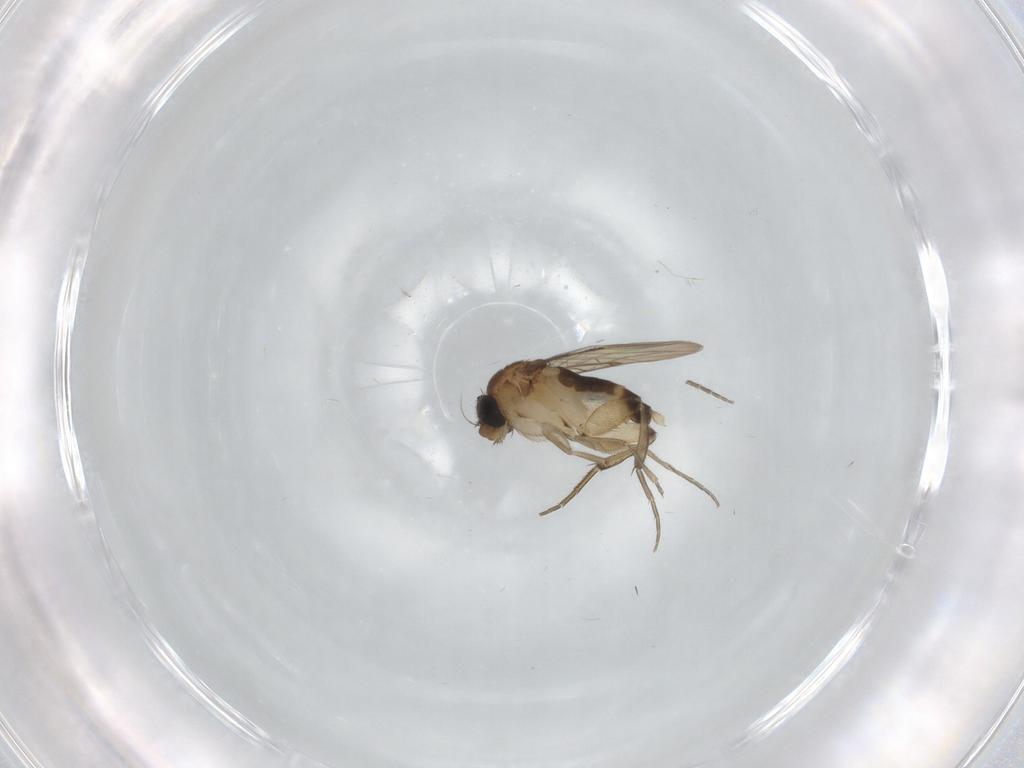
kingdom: Animalia
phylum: Arthropoda
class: Insecta
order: Diptera
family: Phoridae
